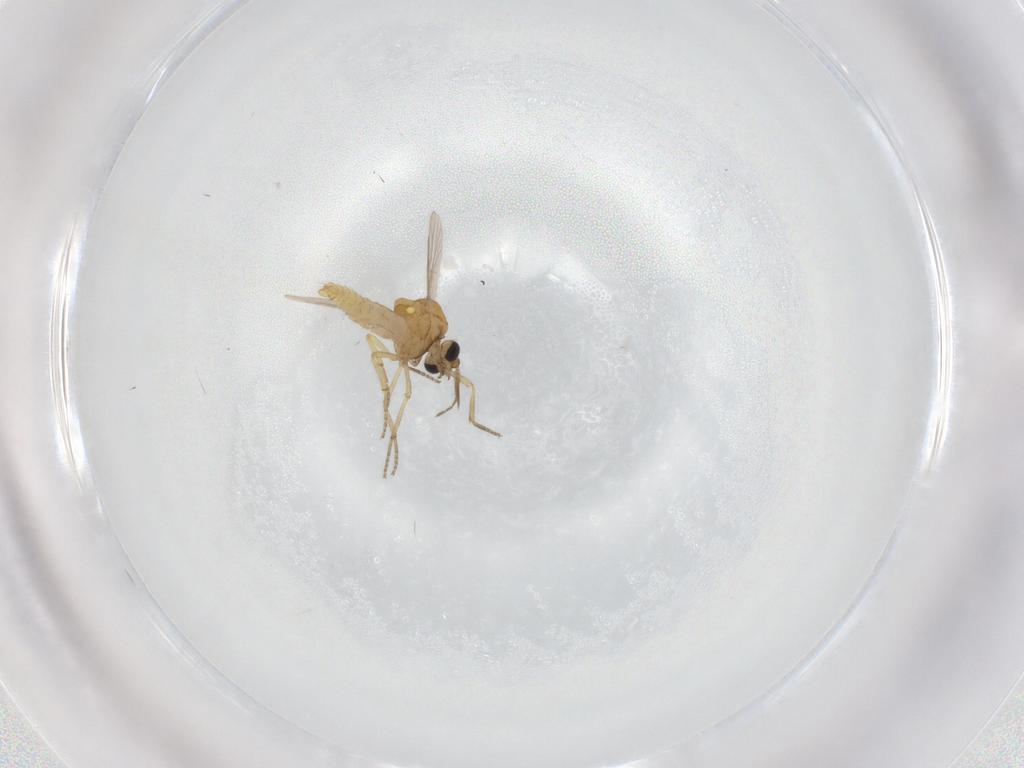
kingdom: Animalia
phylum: Arthropoda
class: Insecta
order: Diptera
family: Ceratopogonidae
